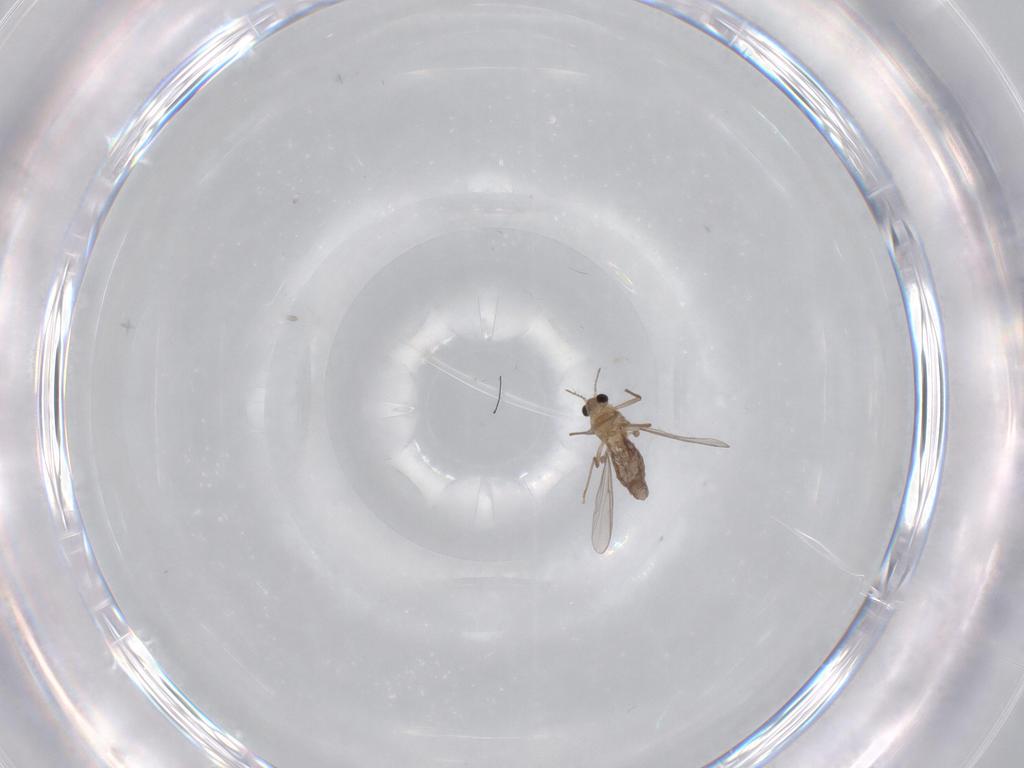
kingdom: Animalia
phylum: Arthropoda
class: Insecta
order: Diptera
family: Chironomidae
